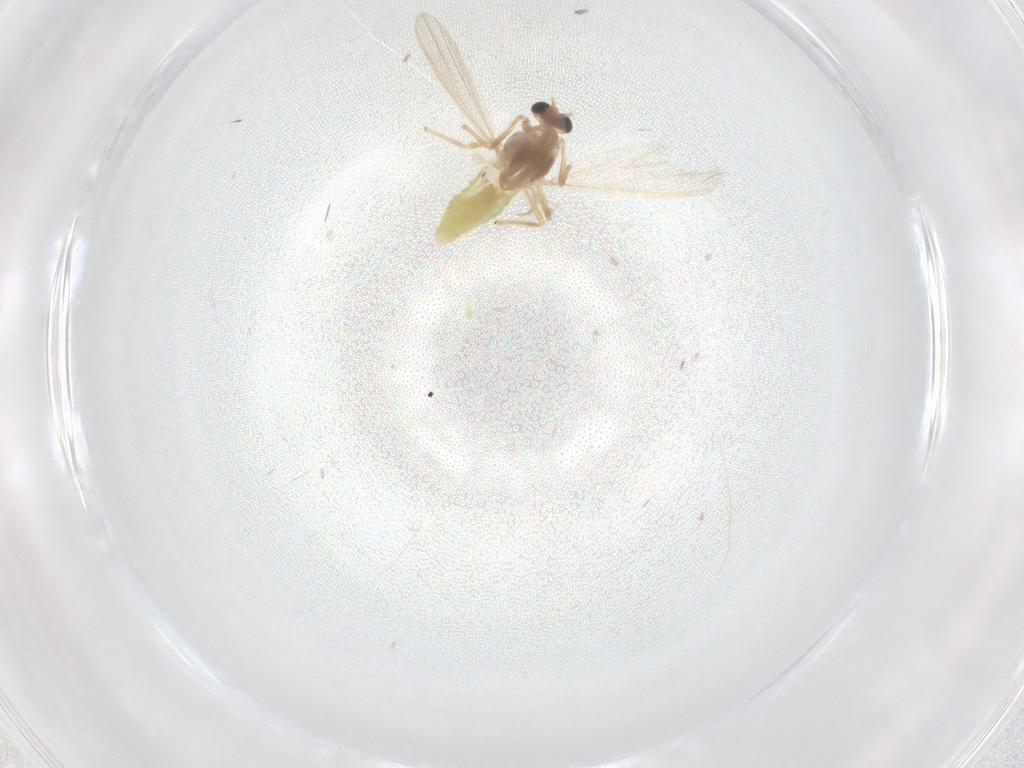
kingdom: Animalia
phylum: Arthropoda
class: Insecta
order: Diptera
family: Chironomidae
